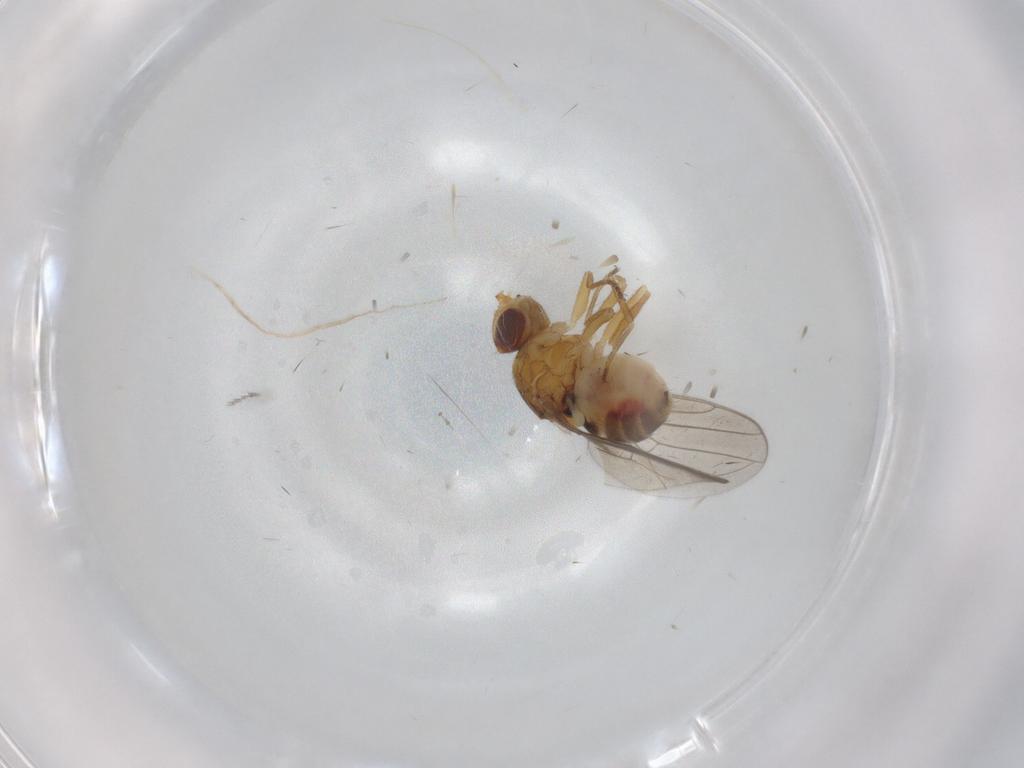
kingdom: Animalia
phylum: Arthropoda
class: Insecta
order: Diptera
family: Chloropidae
